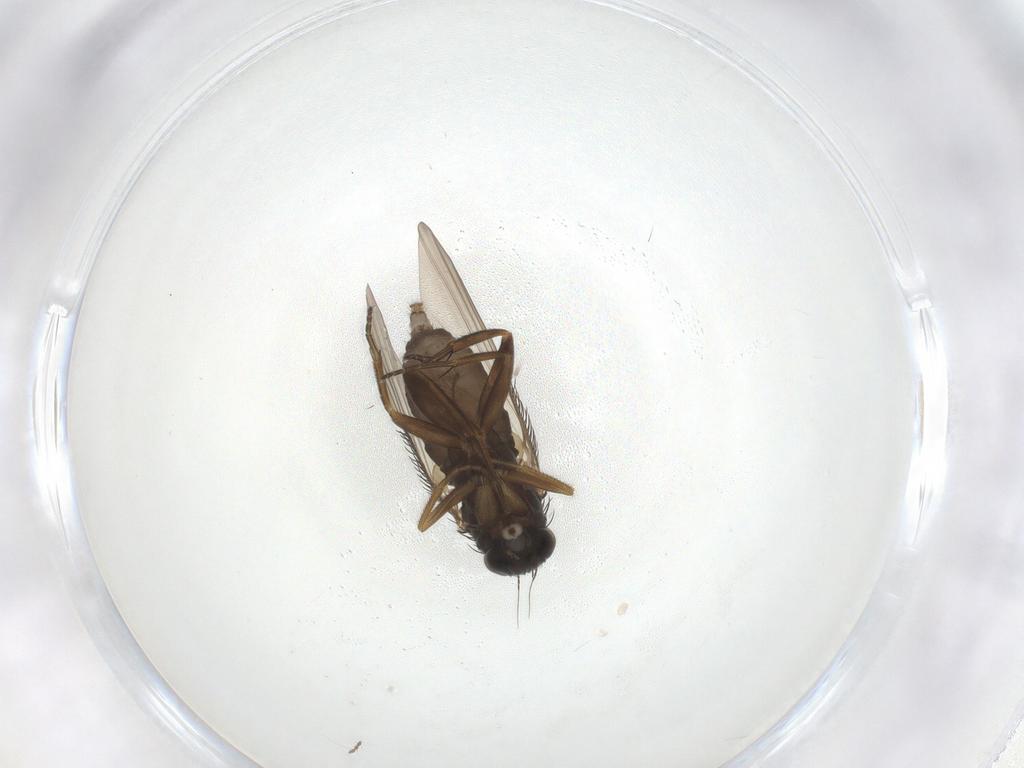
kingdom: Animalia
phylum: Arthropoda
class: Insecta
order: Diptera
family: Phoridae
